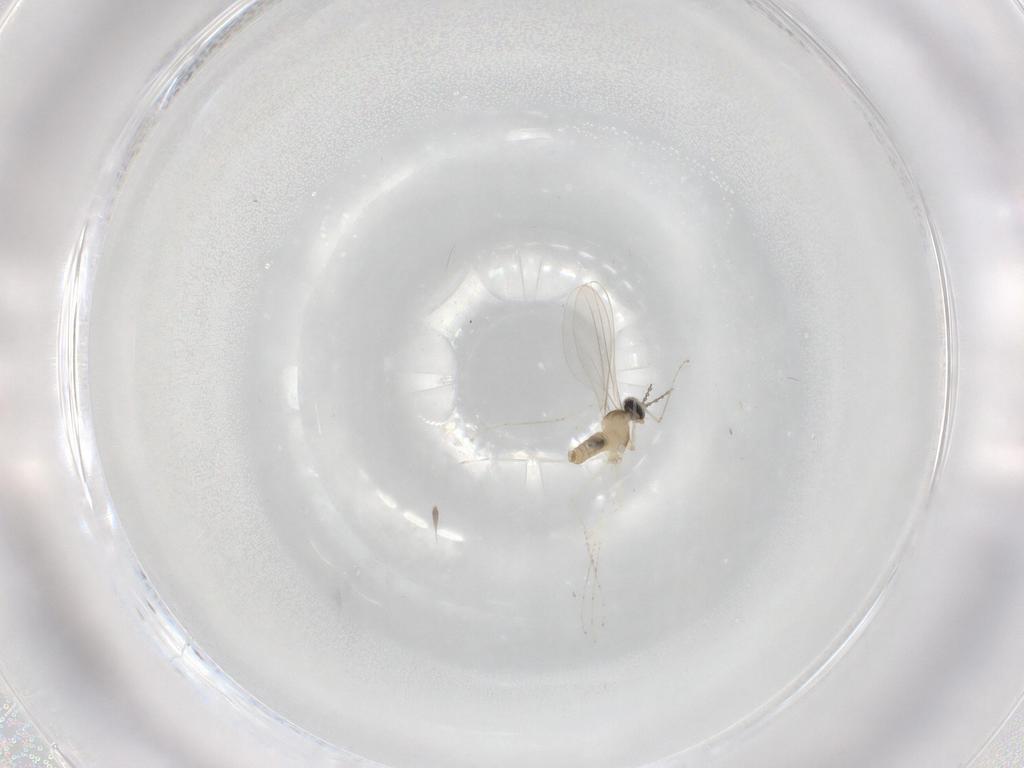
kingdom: Animalia
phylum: Arthropoda
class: Insecta
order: Diptera
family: Cecidomyiidae
